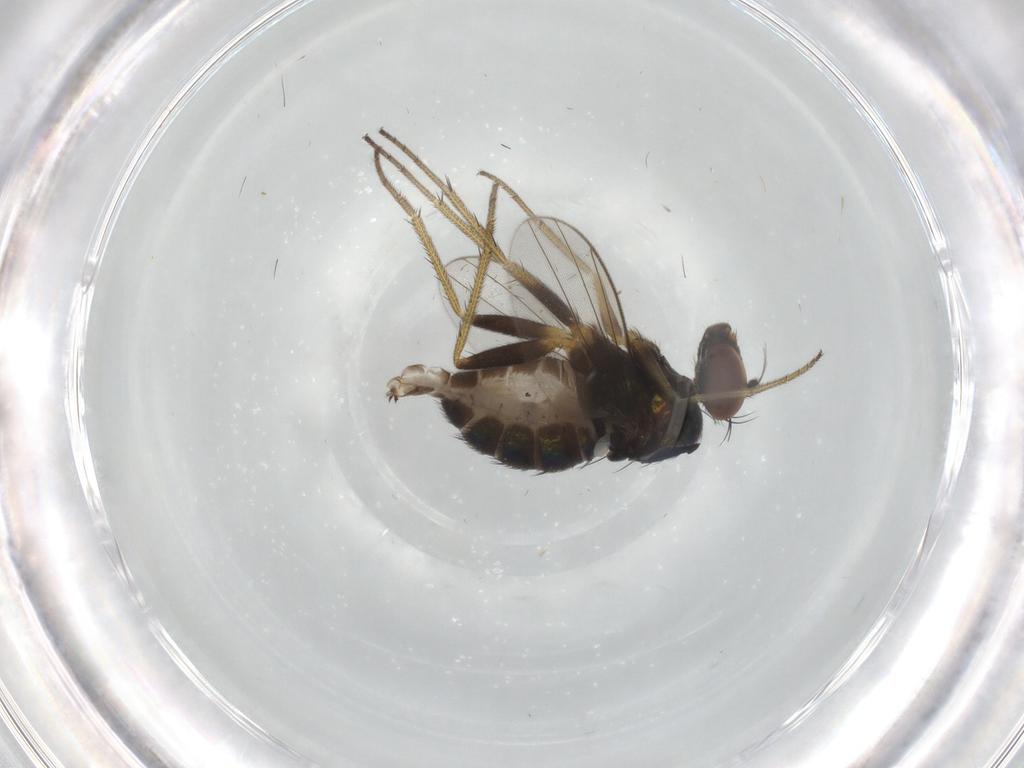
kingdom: Animalia
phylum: Arthropoda
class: Insecta
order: Diptera
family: Limoniidae
